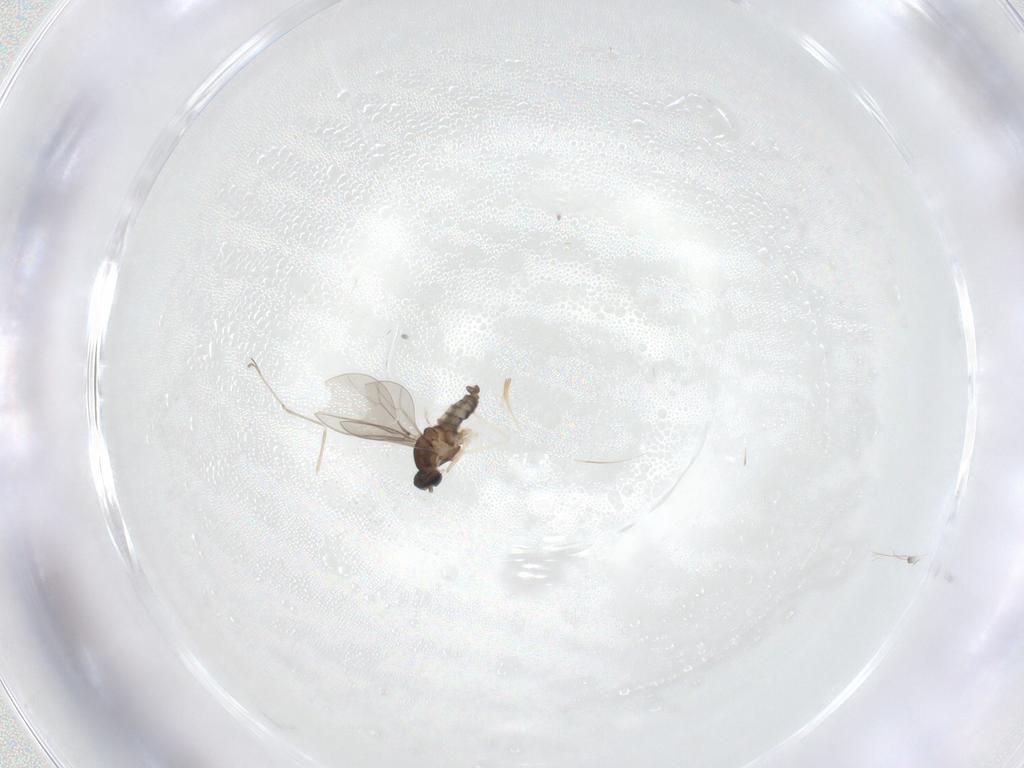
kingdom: Animalia
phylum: Arthropoda
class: Insecta
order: Diptera
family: Cecidomyiidae
